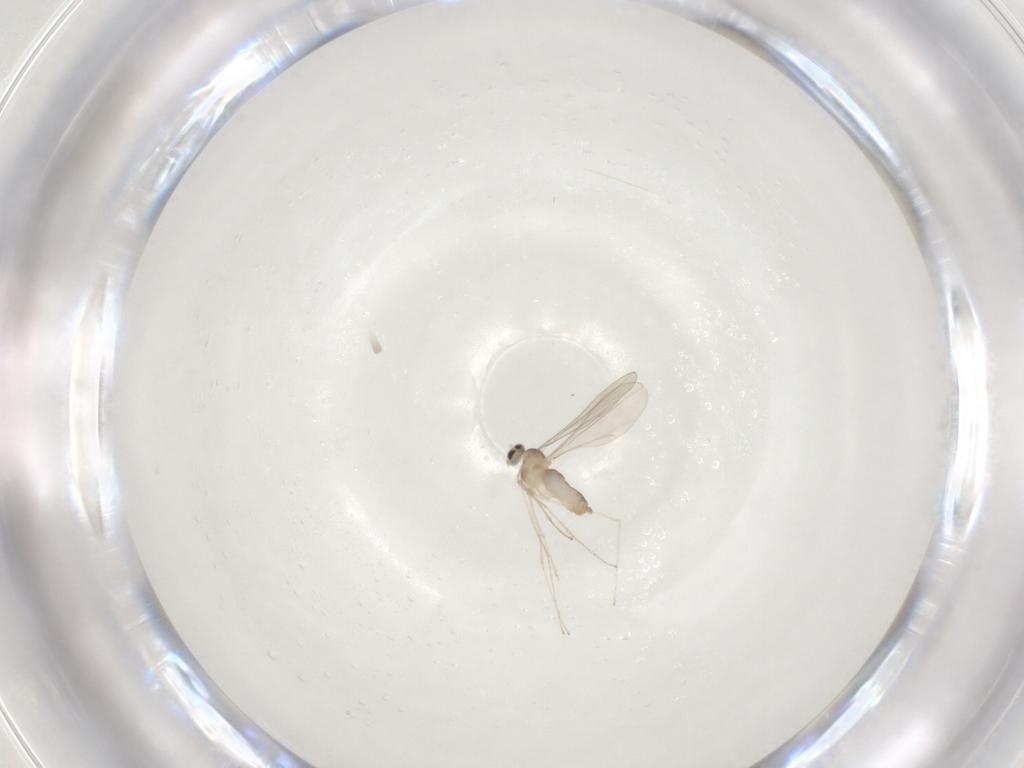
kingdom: Animalia
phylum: Arthropoda
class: Insecta
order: Diptera
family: Cecidomyiidae
